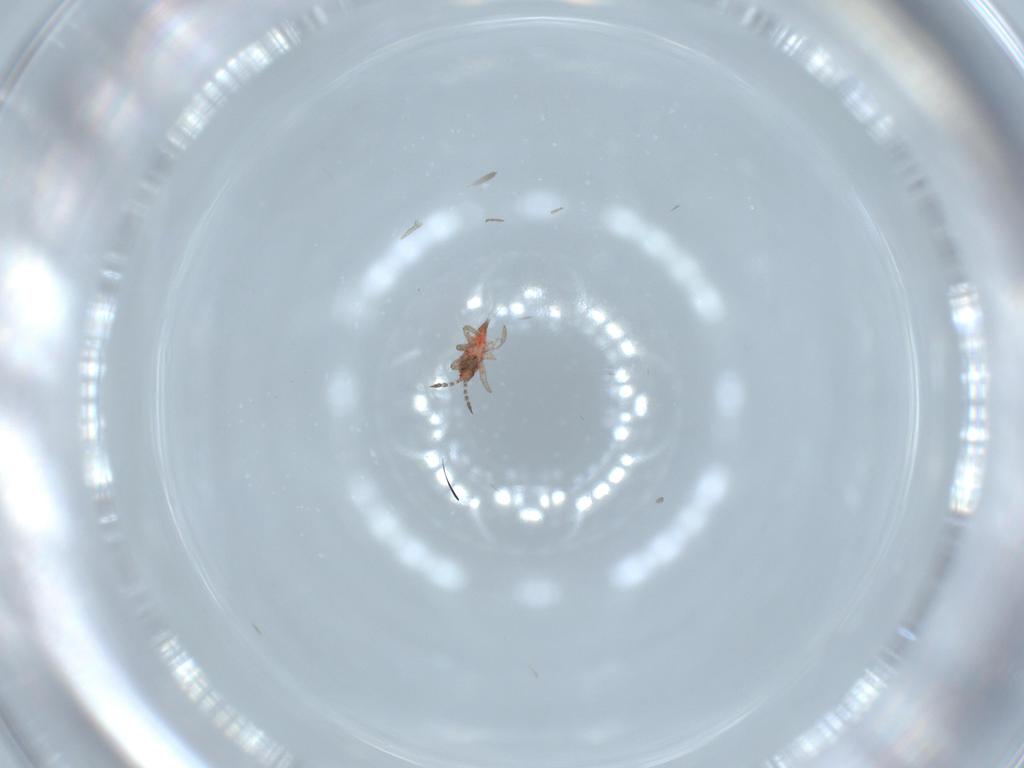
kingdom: Animalia
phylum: Arthropoda
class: Insecta
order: Thysanoptera
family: Phlaeothripidae
